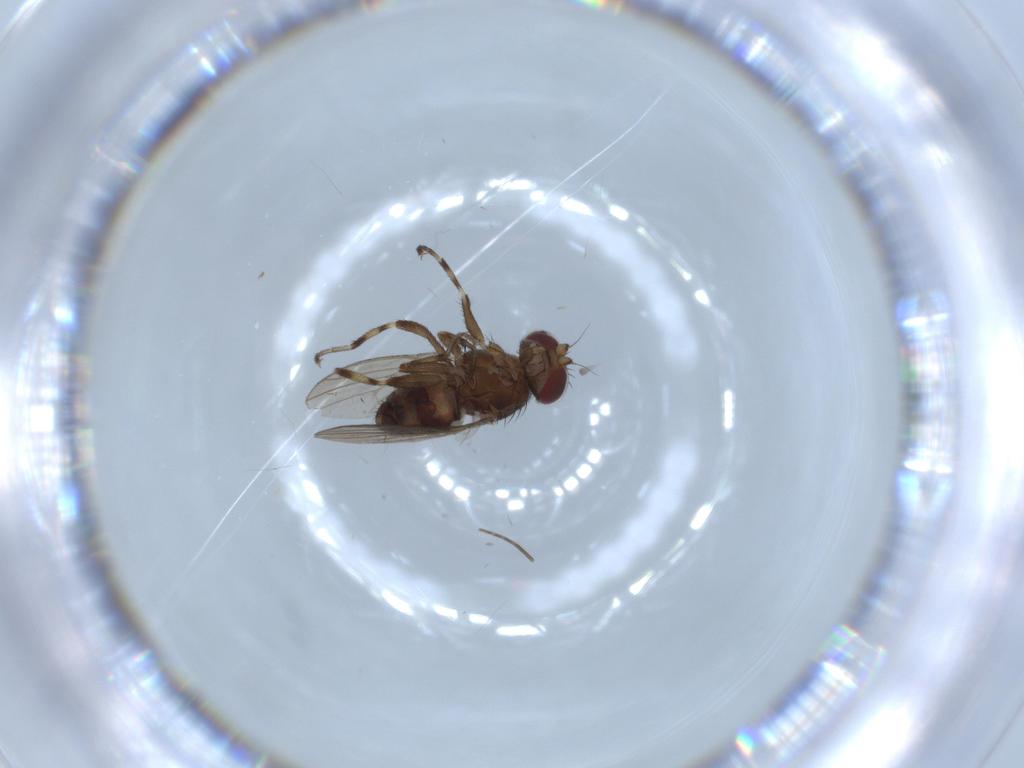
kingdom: Animalia
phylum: Arthropoda
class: Insecta
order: Diptera
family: Heleomyzidae
